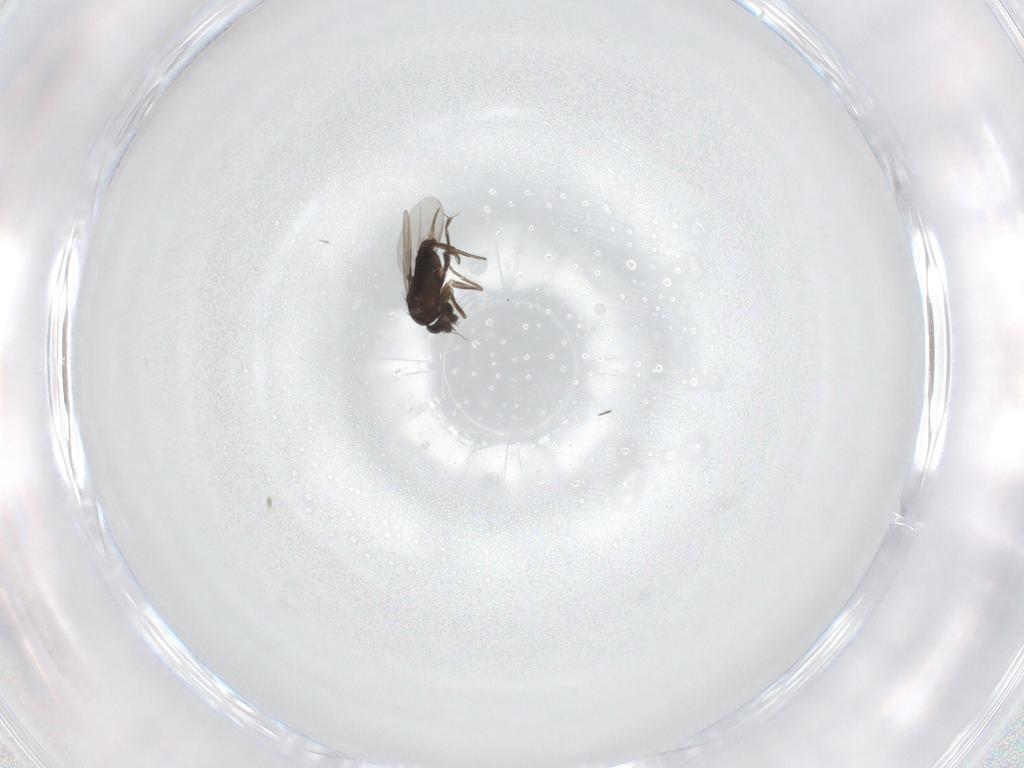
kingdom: Animalia
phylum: Arthropoda
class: Insecta
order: Diptera
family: Phoridae
